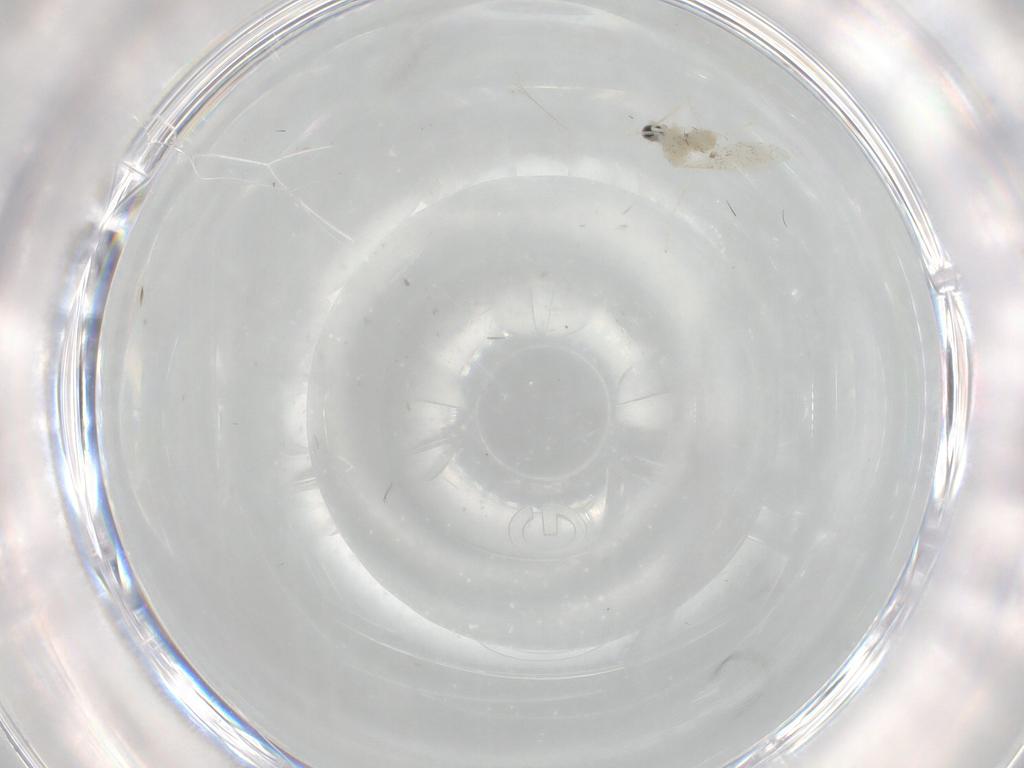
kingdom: Animalia
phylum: Arthropoda
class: Insecta
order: Diptera
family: Cecidomyiidae
